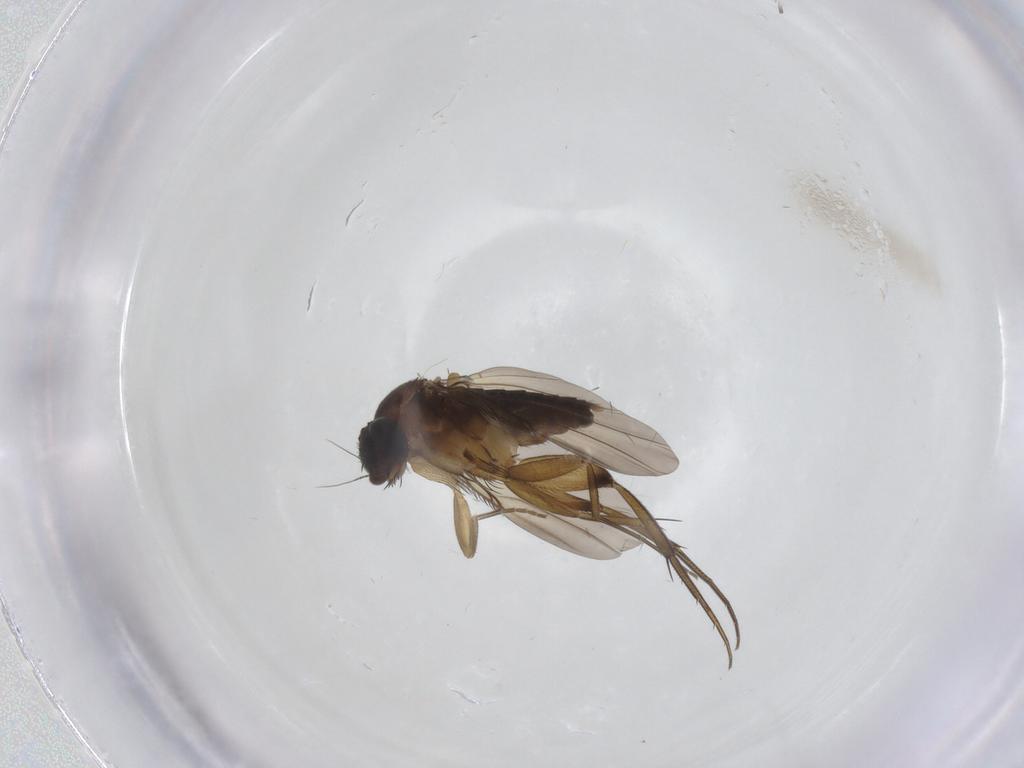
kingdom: Animalia
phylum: Arthropoda
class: Insecta
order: Diptera
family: Phoridae
